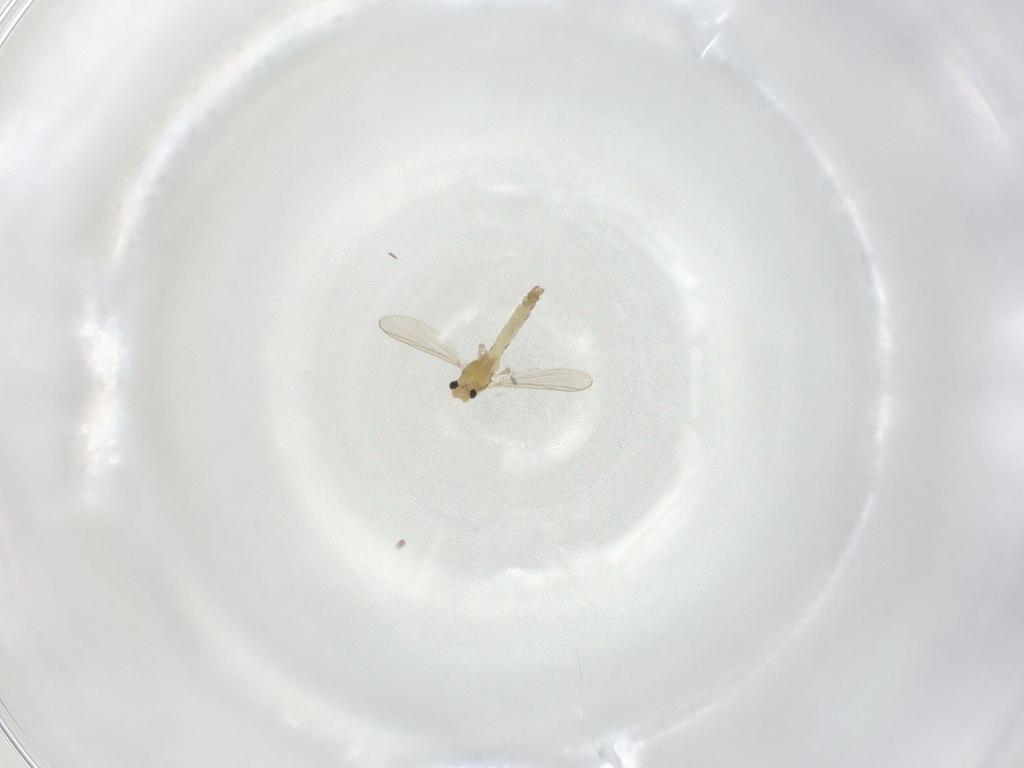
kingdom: Animalia
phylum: Arthropoda
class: Insecta
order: Diptera
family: Chironomidae
